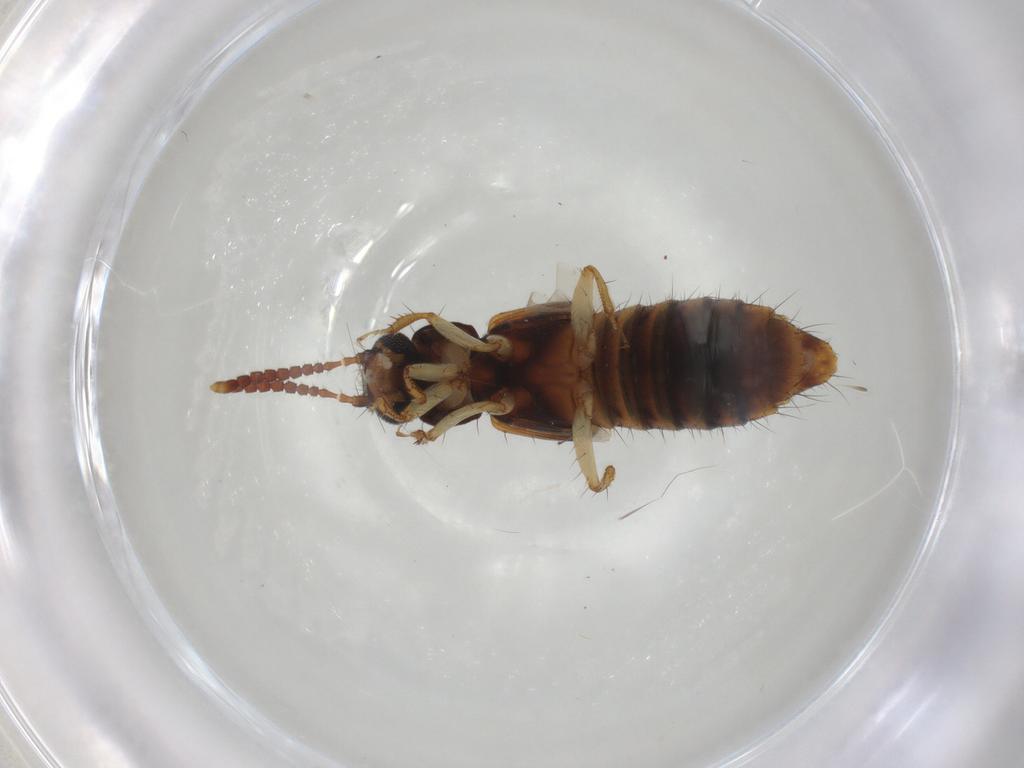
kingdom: Animalia
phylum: Arthropoda
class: Insecta
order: Coleoptera
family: Staphylinidae
